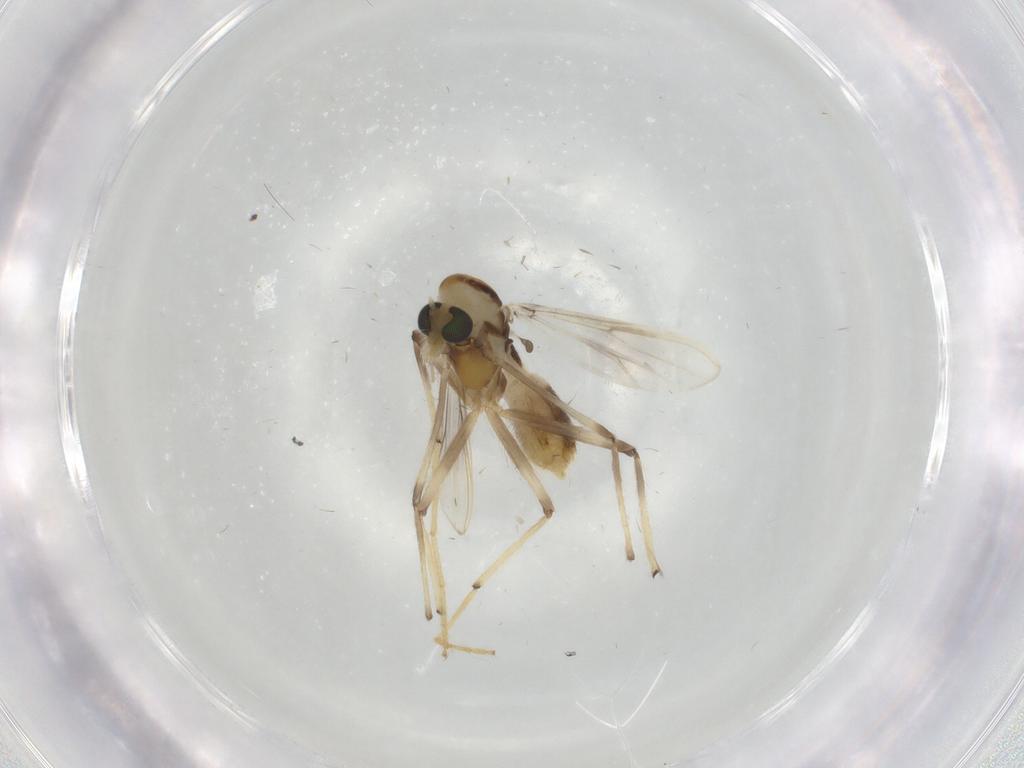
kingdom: Animalia
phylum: Arthropoda
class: Insecta
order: Diptera
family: Chironomidae
